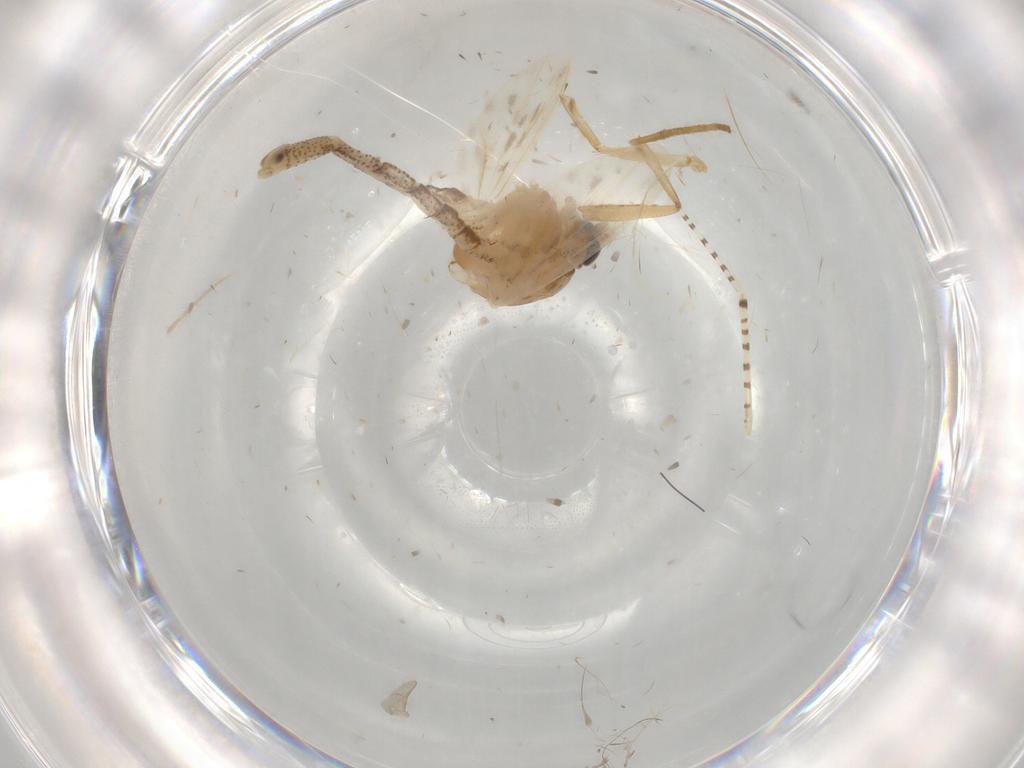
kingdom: Animalia
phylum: Arthropoda
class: Insecta
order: Diptera
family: Chaoboridae
